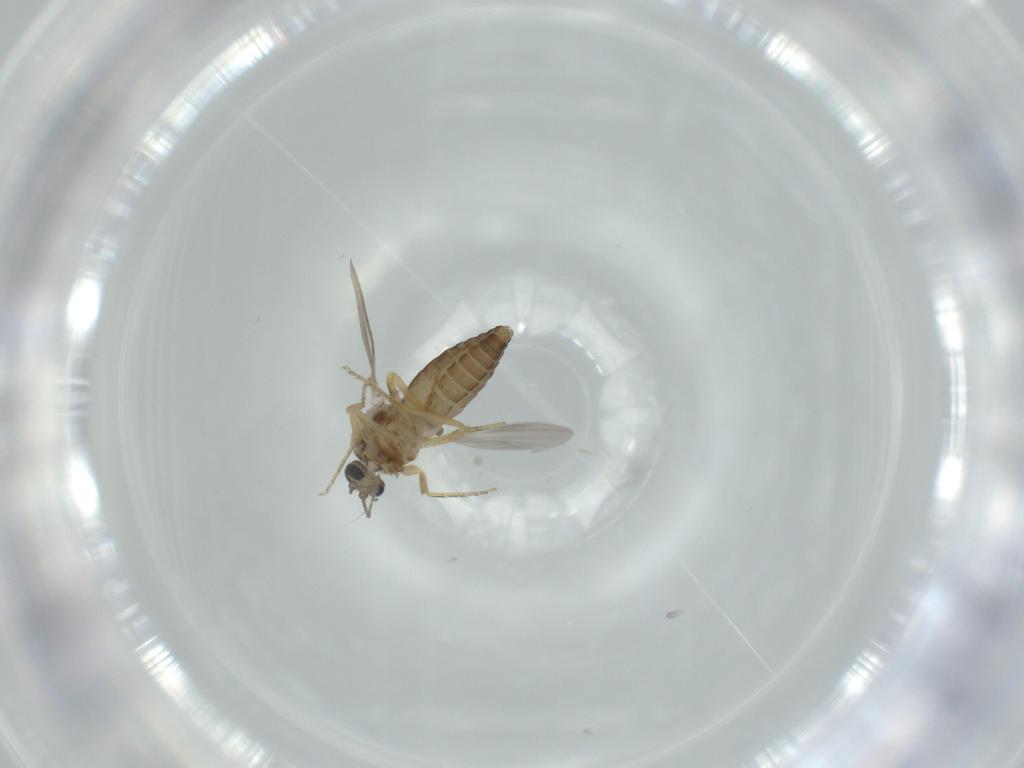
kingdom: Animalia
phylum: Arthropoda
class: Insecta
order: Diptera
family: Ceratopogonidae
